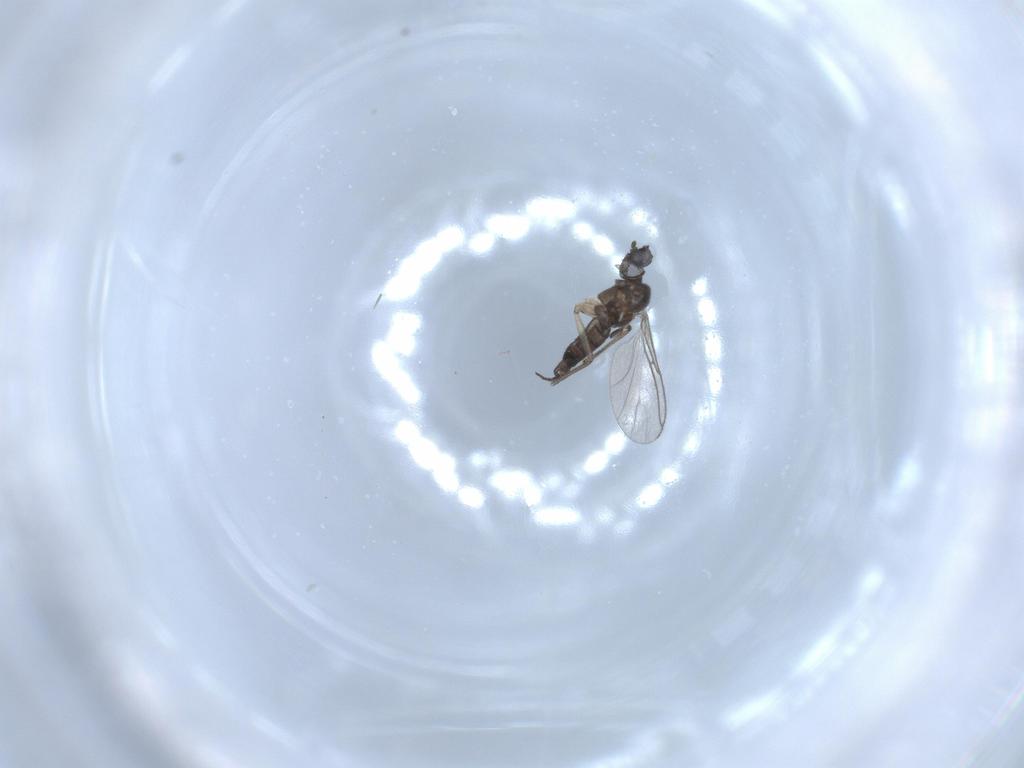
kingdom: Animalia
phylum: Arthropoda
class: Insecta
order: Diptera
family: Sciaridae
